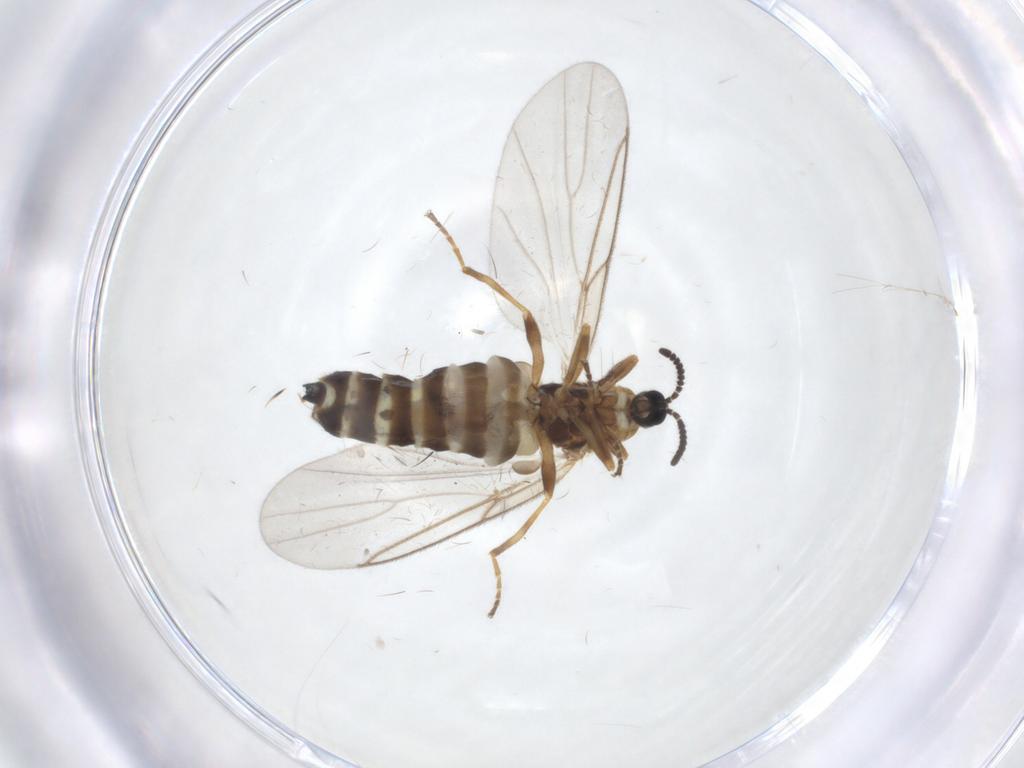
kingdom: Animalia
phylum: Arthropoda
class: Insecta
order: Diptera
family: Scatopsidae
